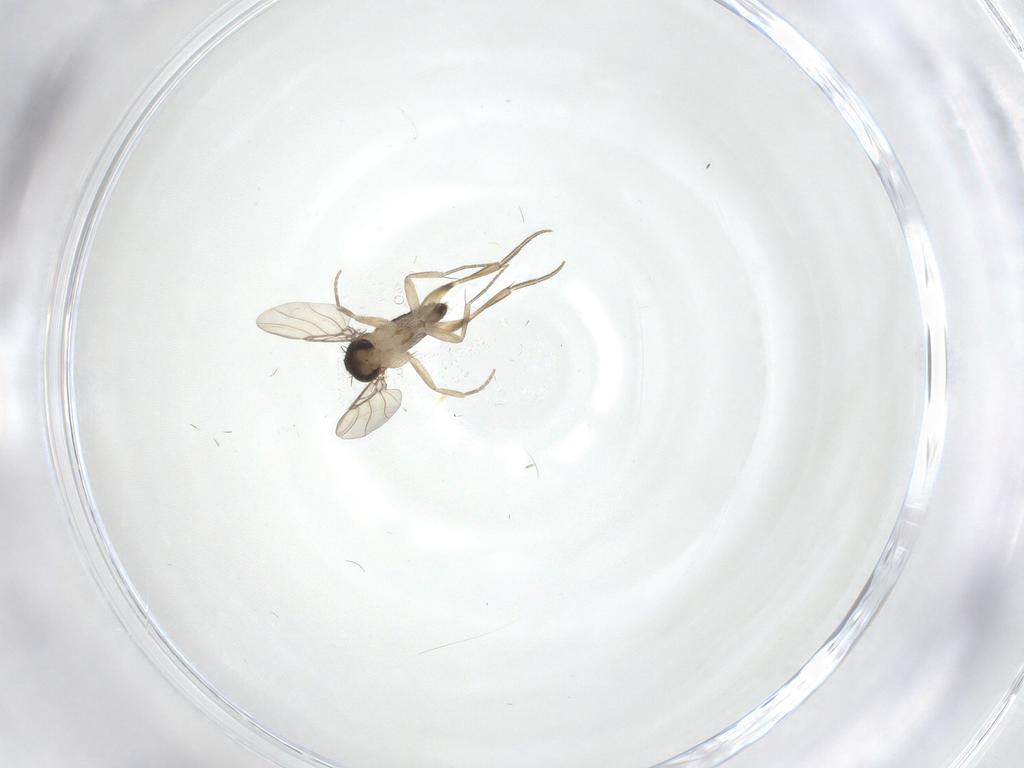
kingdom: Animalia
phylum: Arthropoda
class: Insecta
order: Diptera
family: Phoridae
